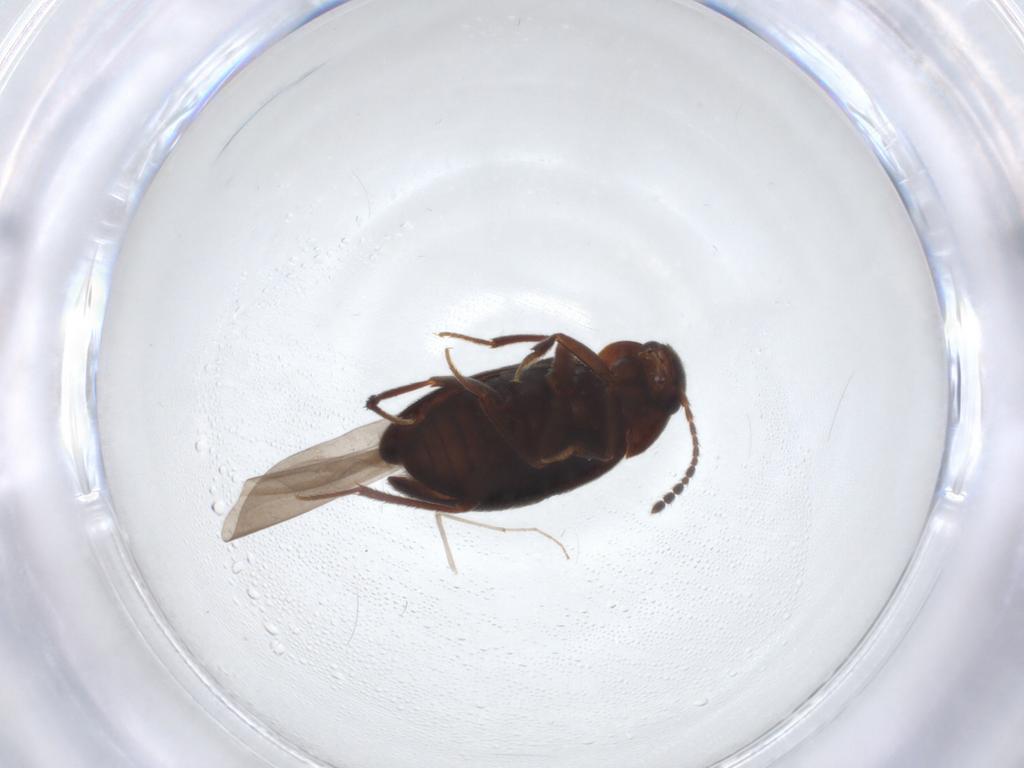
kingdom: Animalia
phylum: Arthropoda
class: Insecta
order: Coleoptera
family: Leiodidae
